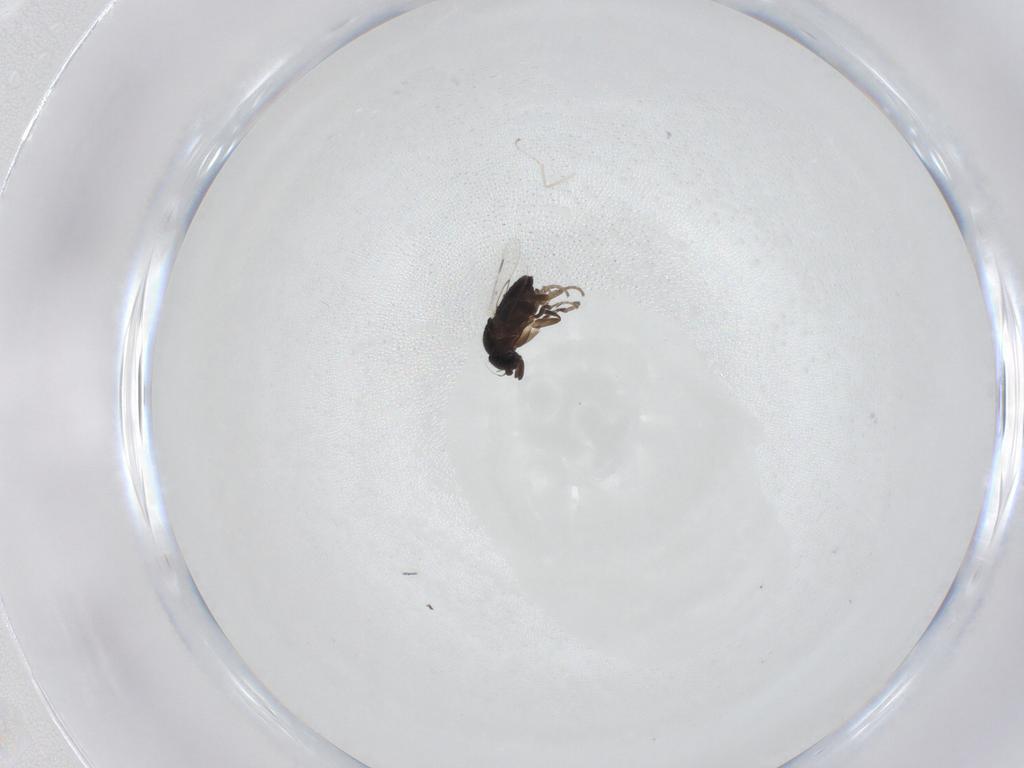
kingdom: Animalia
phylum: Arthropoda
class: Insecta
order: Diptera
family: Phoridae
